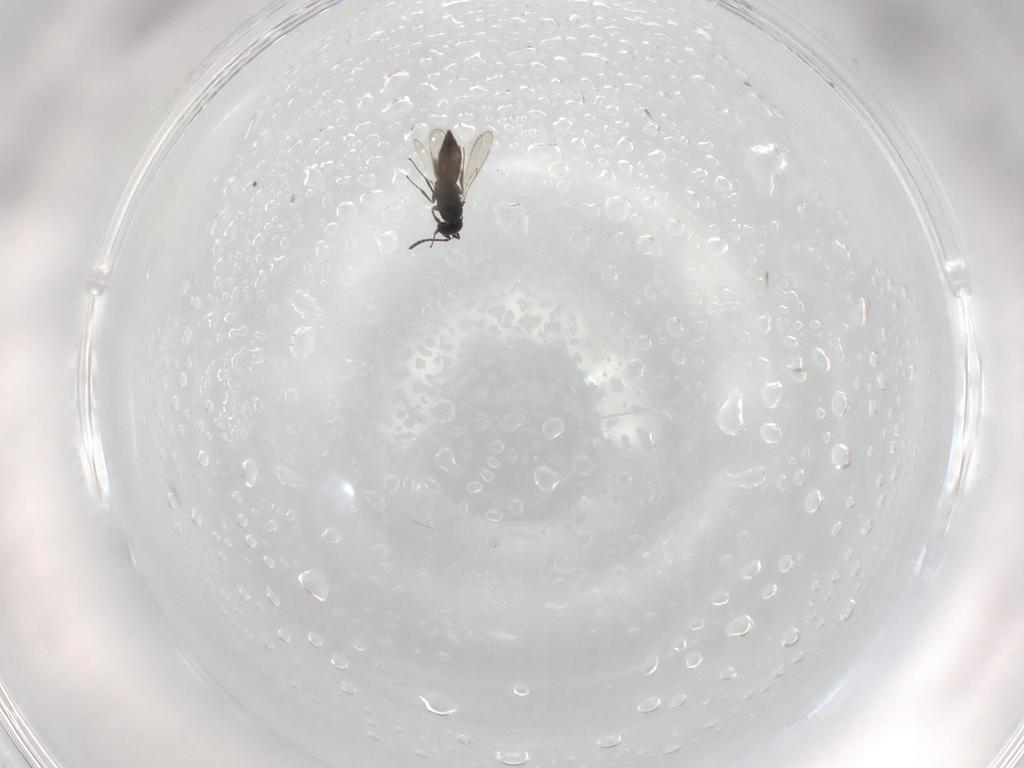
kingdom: Animalia
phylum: Arthropoda
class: Insecta
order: Hymenoptera
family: Scelionidae
